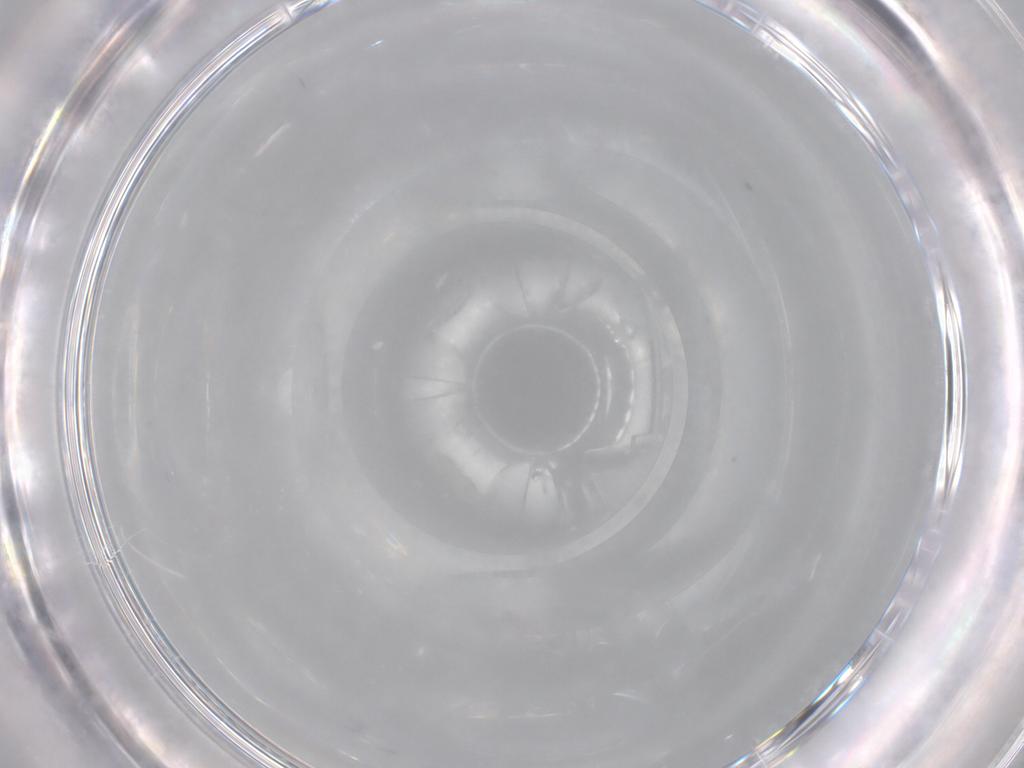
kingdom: Animalia
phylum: Arthropoda
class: Insecta
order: Hymenoptera
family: Ichneumonidae
